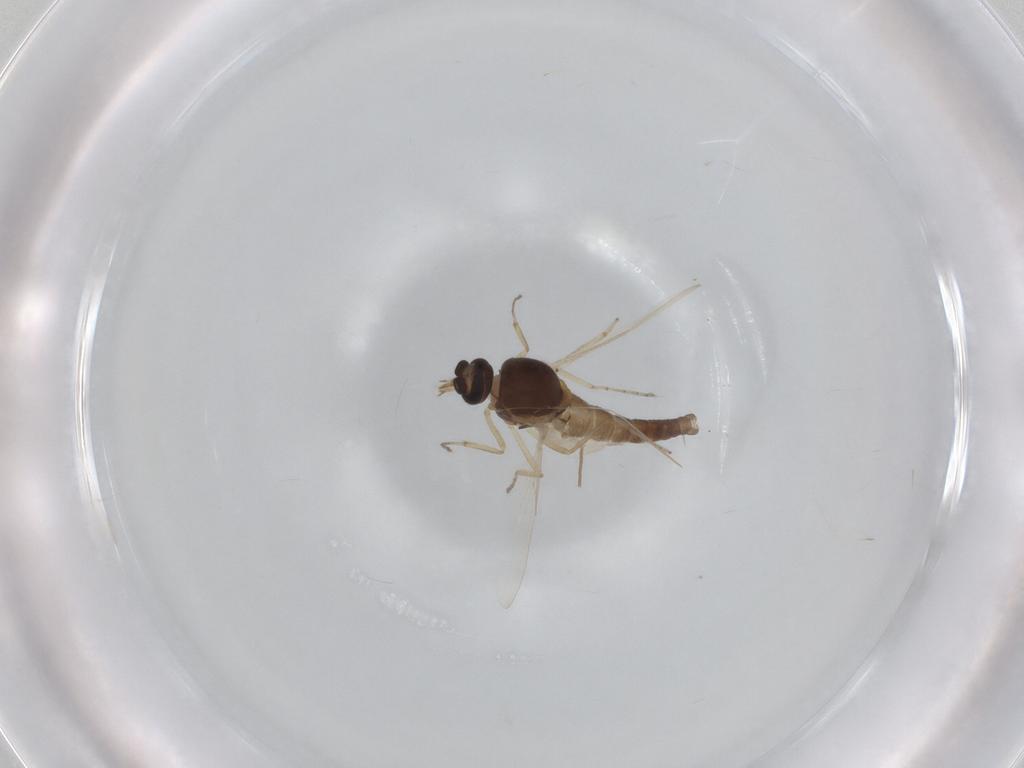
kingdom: Animalia
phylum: Arthropoda
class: Insecta
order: Diptera
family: Ceratopogonidae
